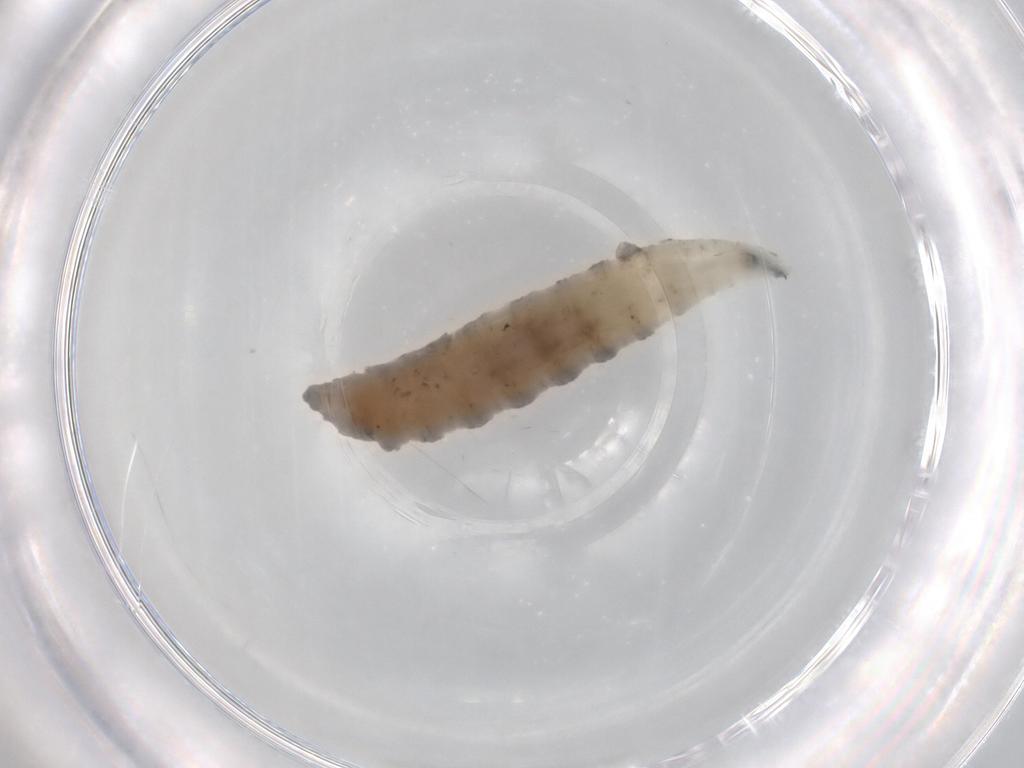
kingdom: Animalia
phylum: Arthropoda
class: Insecta
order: Diptera
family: Drosophilidae
